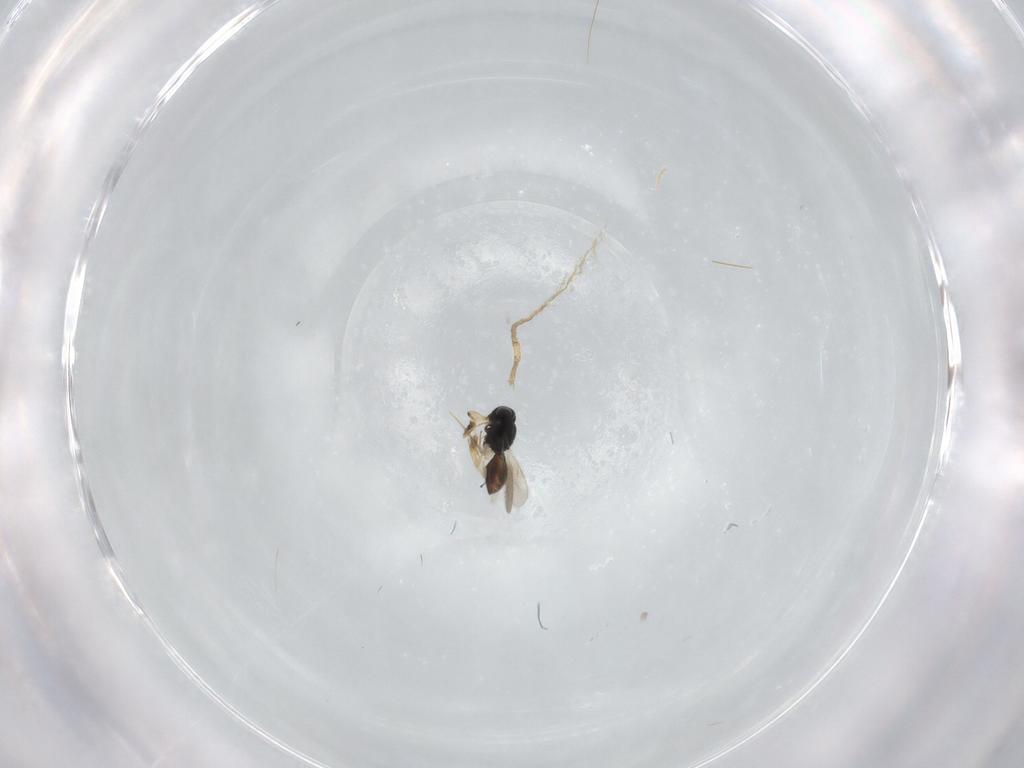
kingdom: Animalia
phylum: Arthropoda
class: Insecta
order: Hymenoptera
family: Scelionidae
